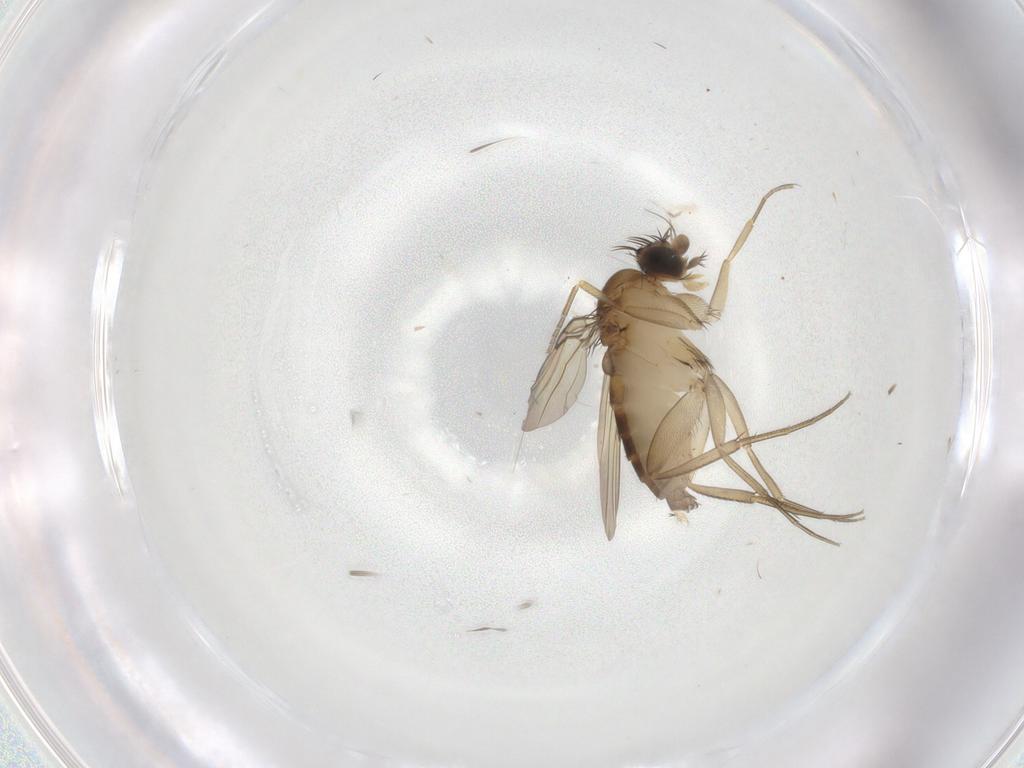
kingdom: Animalia
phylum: Arthropoda
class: Insecta
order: Diptera
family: Phoridae
